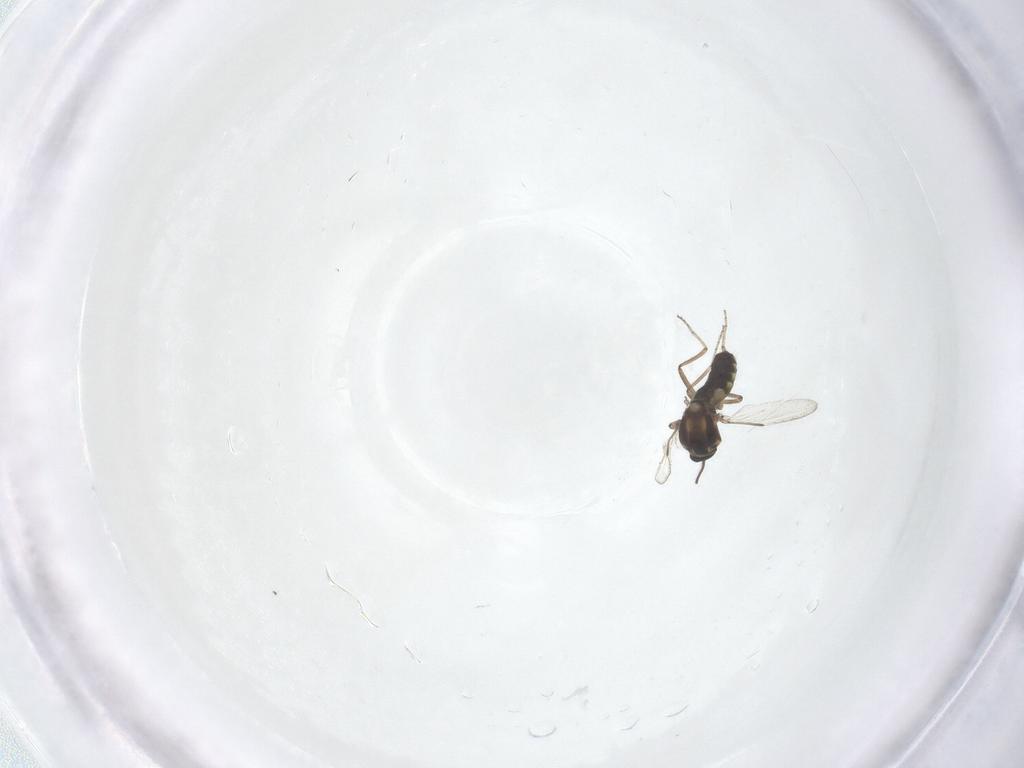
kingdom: Animalia
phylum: Arthropoda
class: Insecta
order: Diptera
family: Ceratopogonidae
